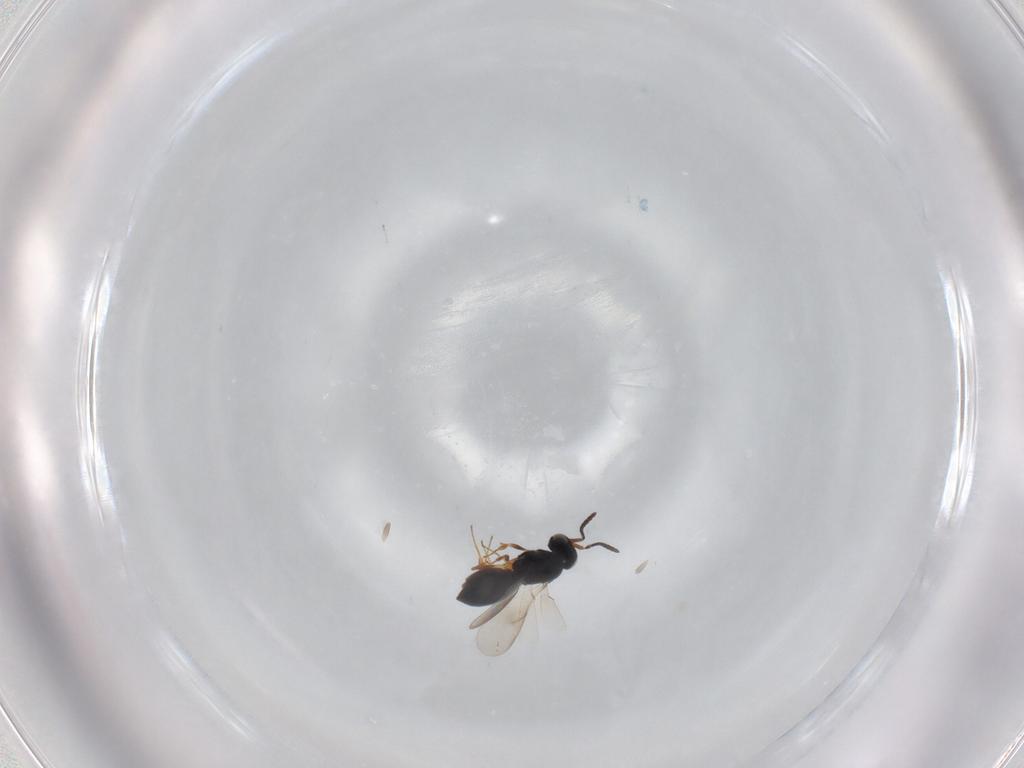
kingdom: Animalia
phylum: Arthropoda
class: Insecta
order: Hymenoptera
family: Scelionidae
